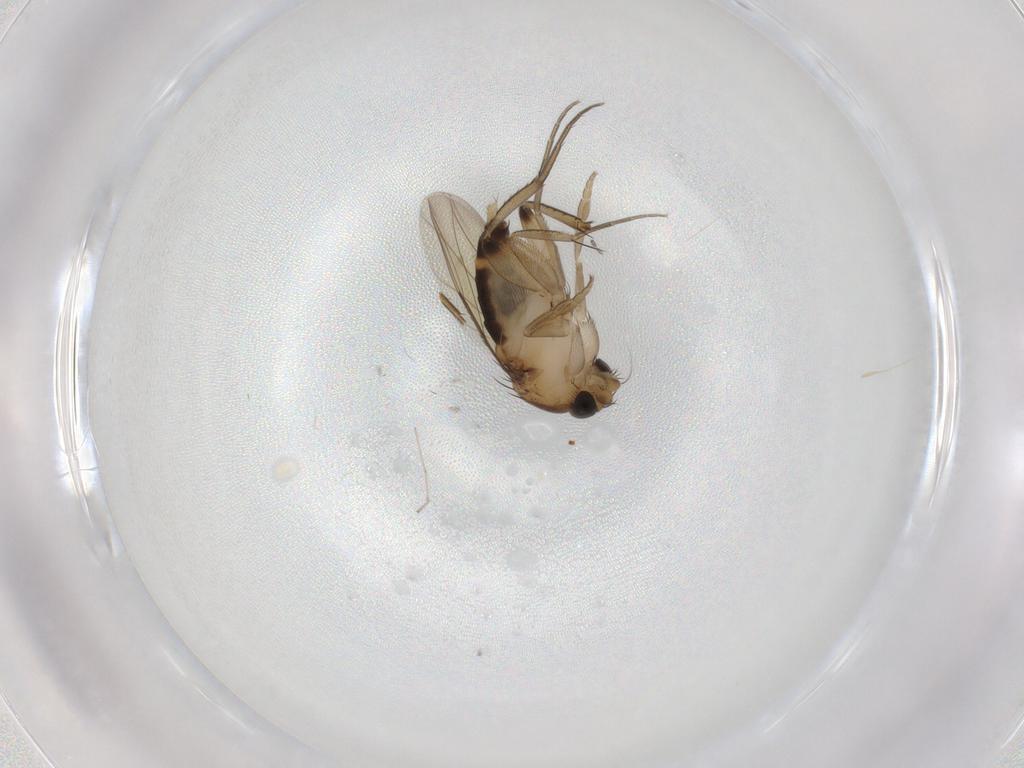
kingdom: Animalia
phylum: Arthropoda
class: Insecta
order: Diptera
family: Phoridae
